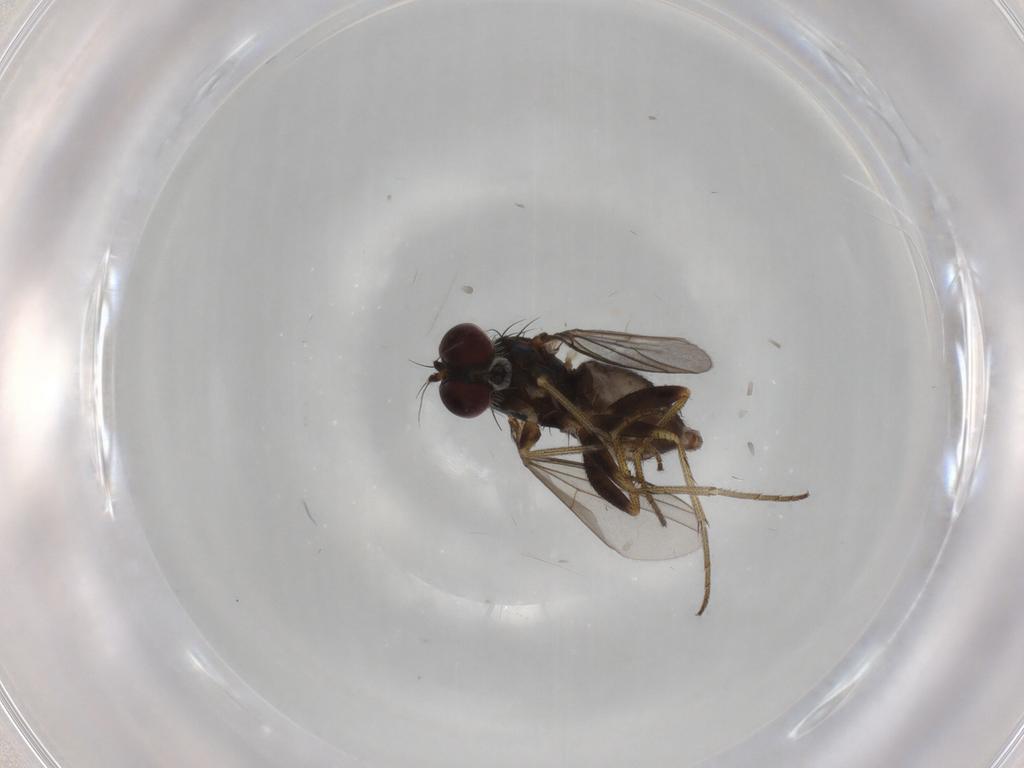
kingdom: Animalia
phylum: Arthropoda
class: Insecta
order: Diptera
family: Dolichopodidae
